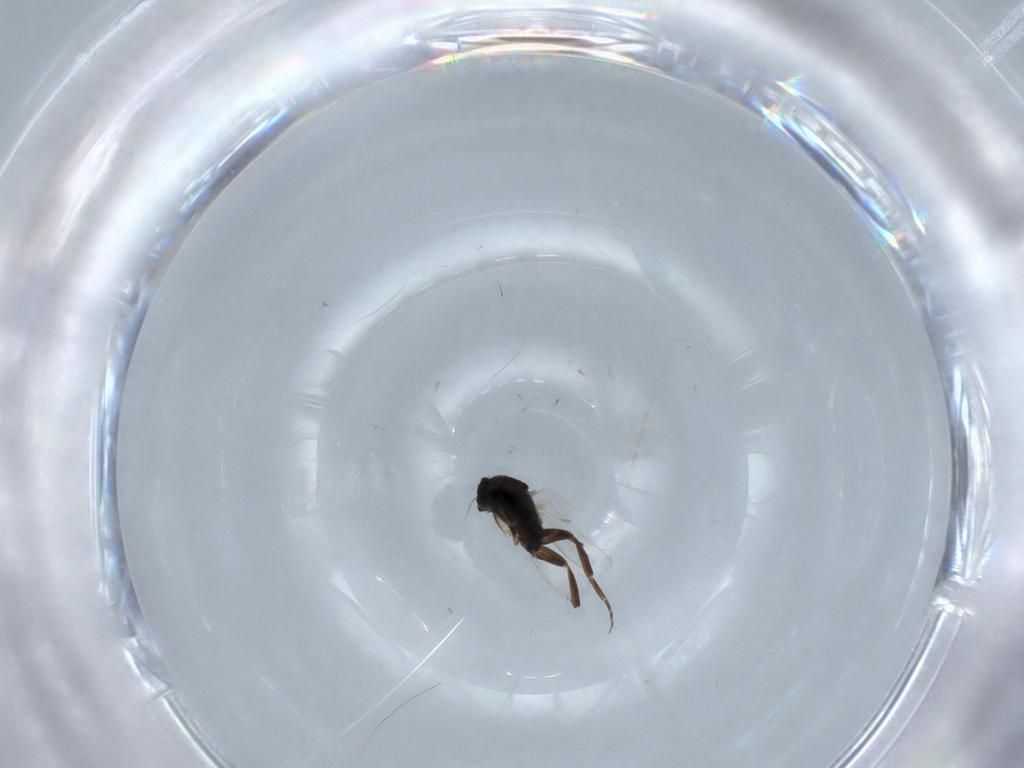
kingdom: Animalia
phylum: Arthropoda
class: Insecta
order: Diptera
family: Phoridae
